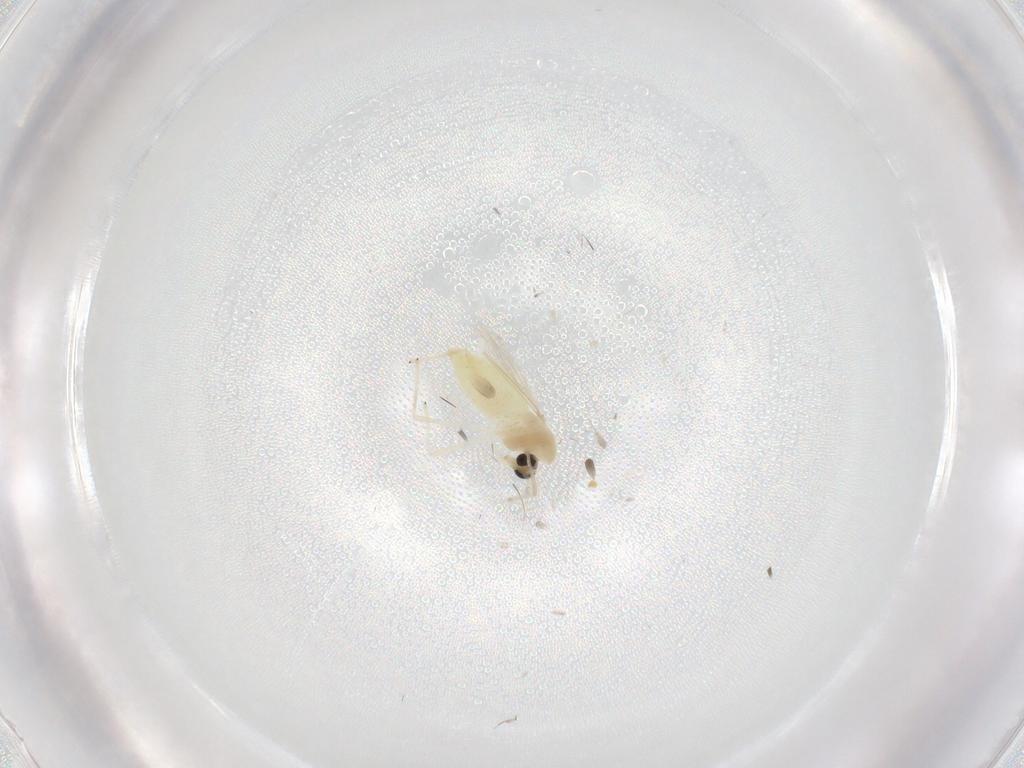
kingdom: Animalia
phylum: Arthropoda
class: Insecta
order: Diptera
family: Chironomidae
